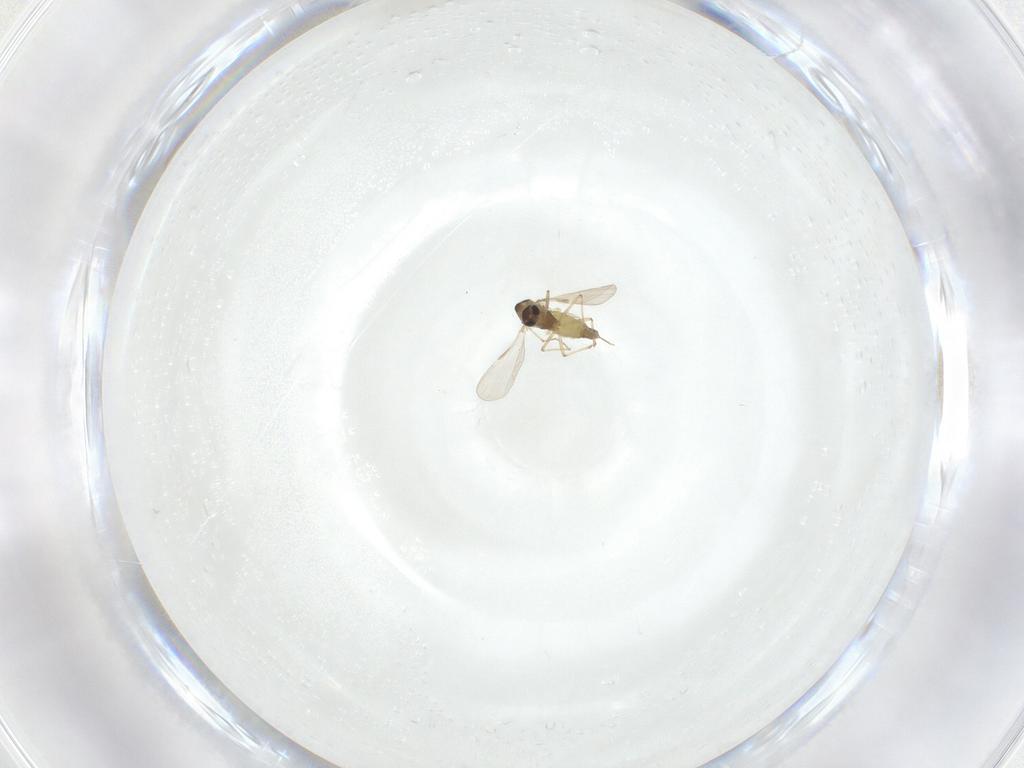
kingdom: Animalia
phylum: Arthropoda
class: Insecta
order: Diptera
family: Chironomidae
